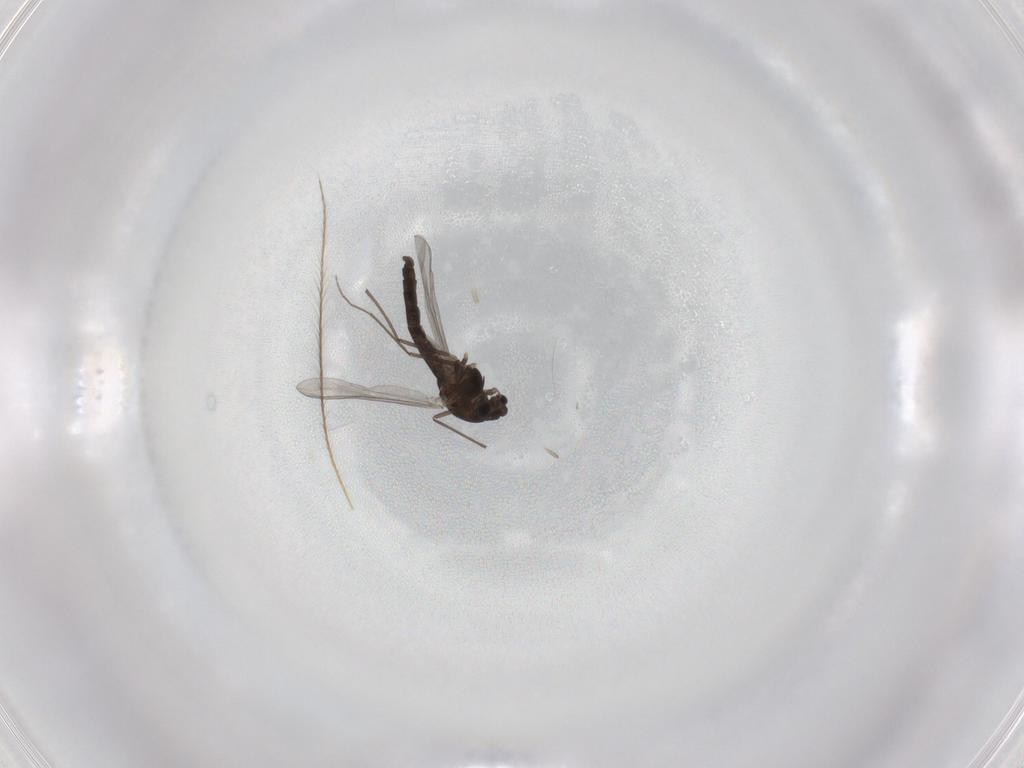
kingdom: Animalia
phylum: Arthropoda
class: Insecta
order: Diptera
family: Chironomidae
